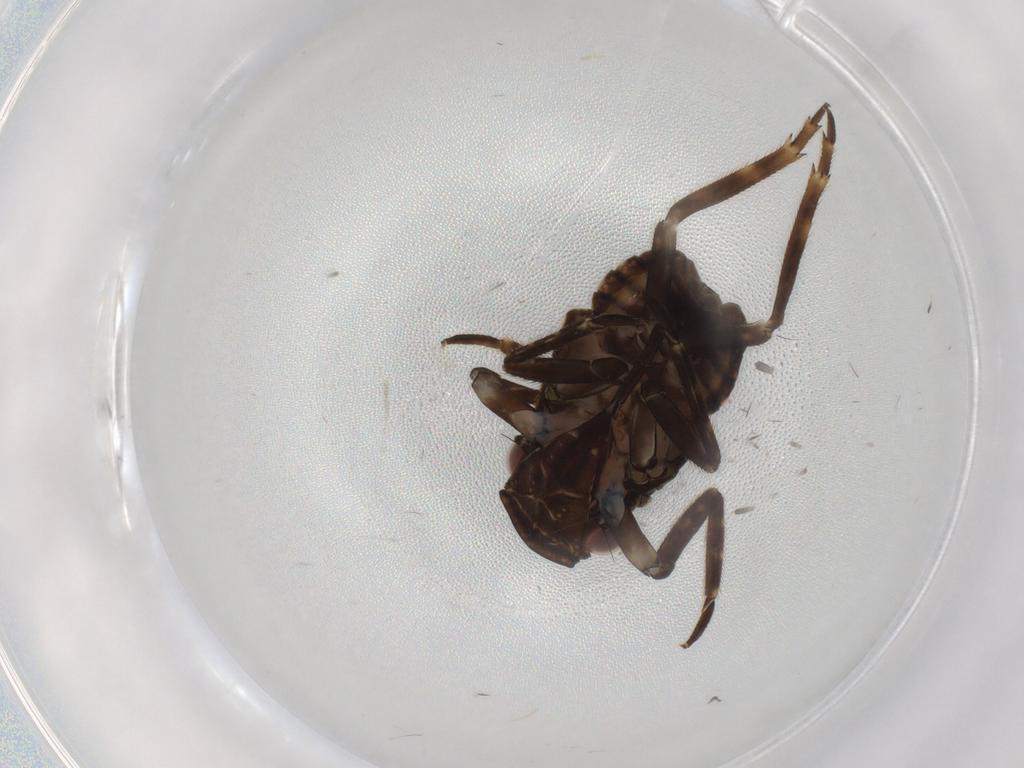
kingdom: Animalia
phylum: Arthropoda
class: Insecta
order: Hemiptera
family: Fulgoridae
